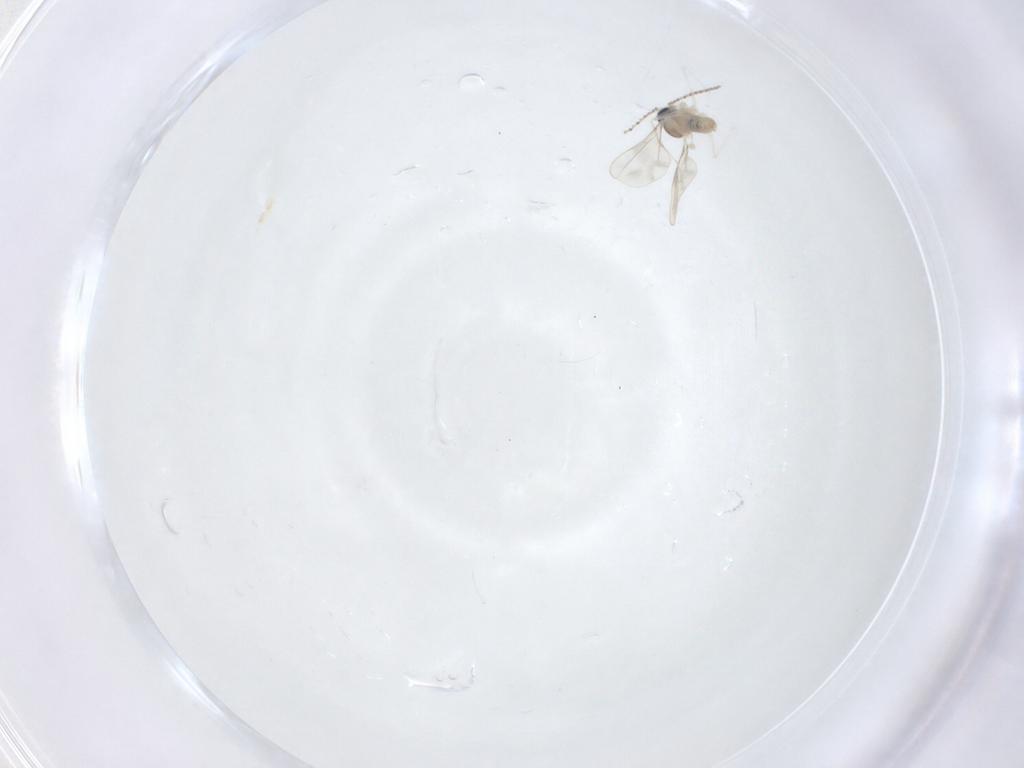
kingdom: Animalia
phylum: Arthropoda
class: Insecta
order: Diptera
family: Cecidomyiidae
